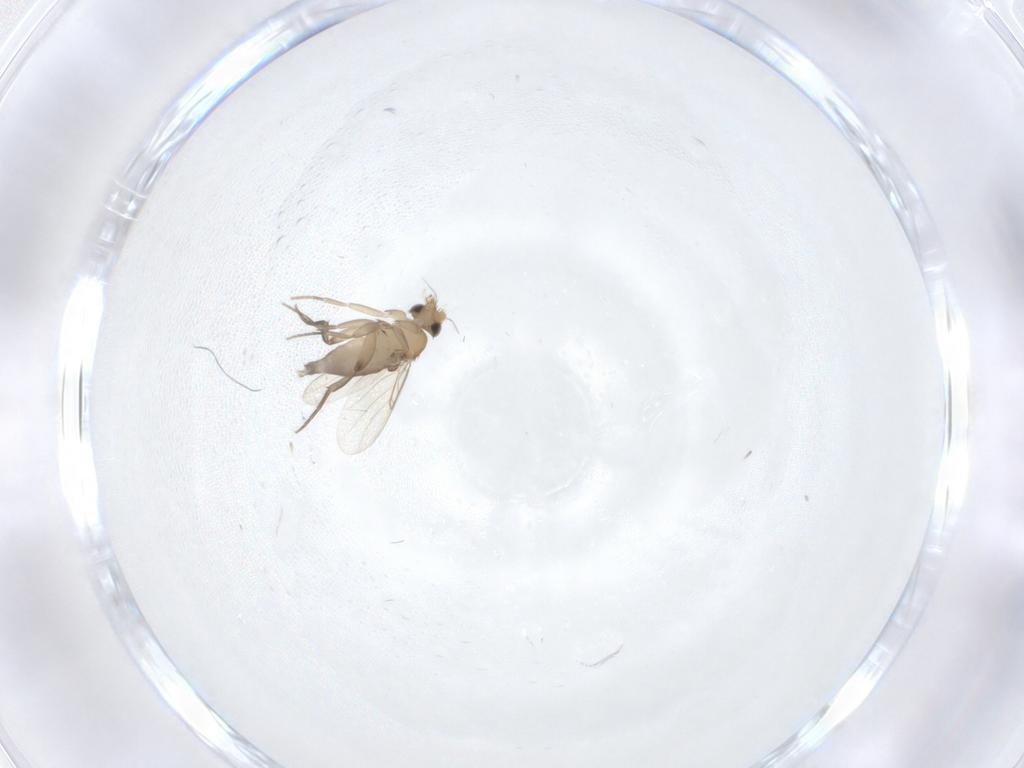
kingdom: Animalia
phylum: Arthropoda
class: Insecta
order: Diptera
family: Phoridae
